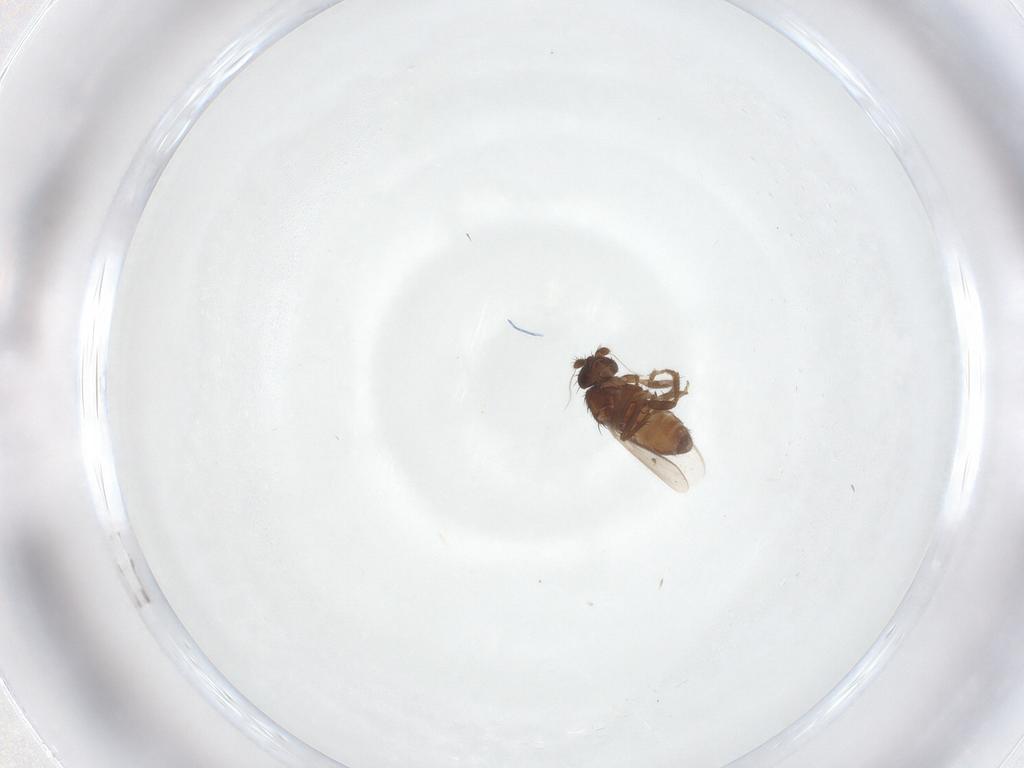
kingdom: Animalia
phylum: Arthropoda
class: Insecta
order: Diptera
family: Sphaeroceridae
